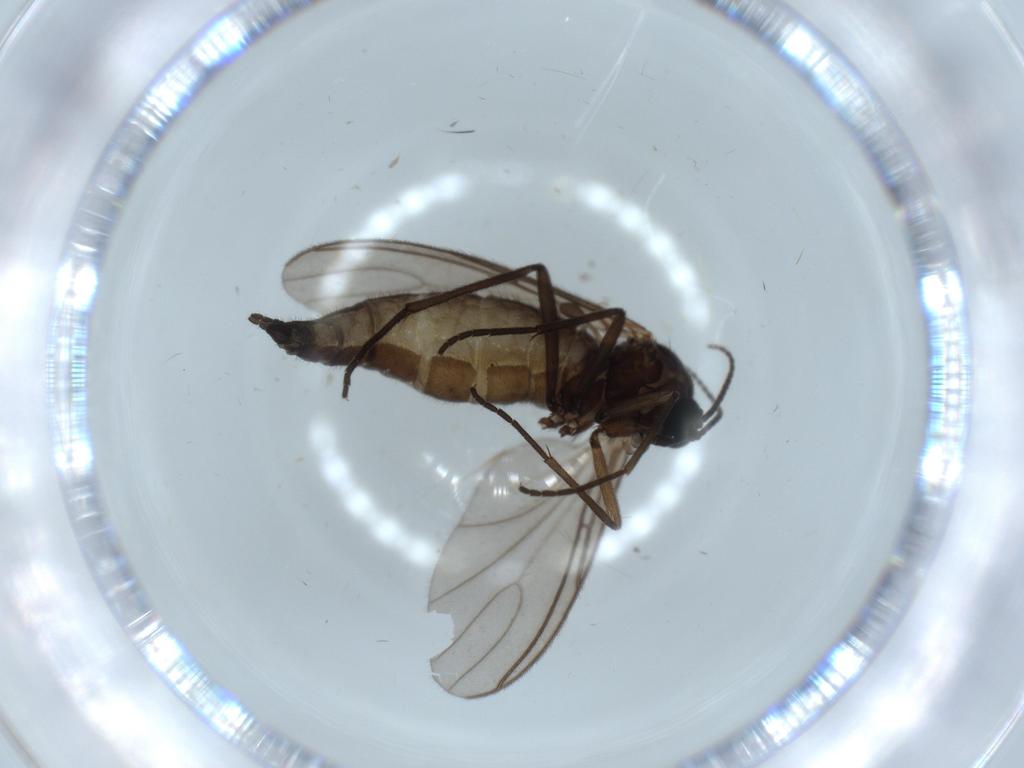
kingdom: Animalia
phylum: Arthropoda
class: Insecta
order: Diptera
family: Sciaridae
